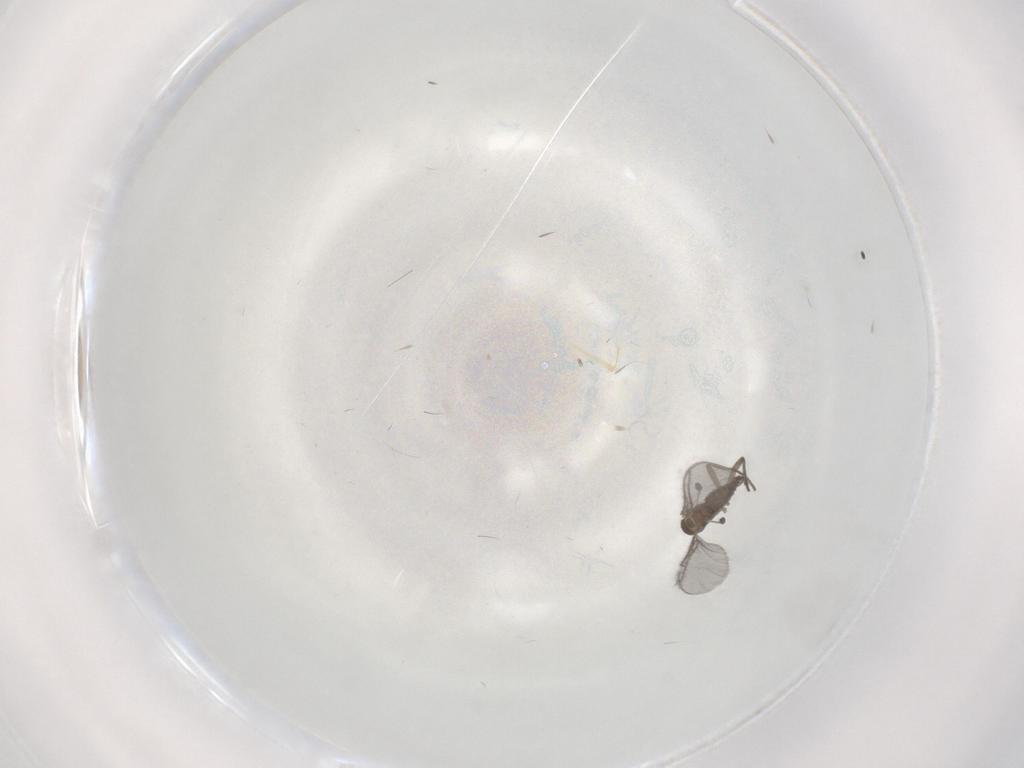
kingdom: Animalia
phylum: Arthropoda
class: Insecta
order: Diptera
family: Sciaridae
